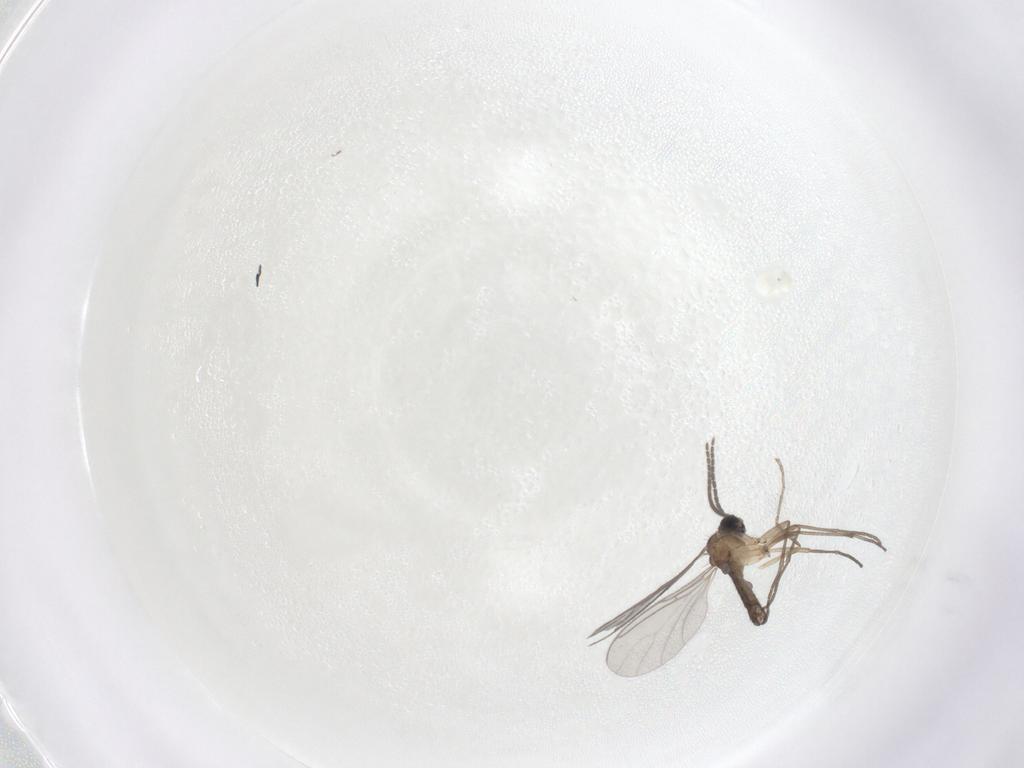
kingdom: Animalia
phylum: Arthropoda
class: Insecta
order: Diptera
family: Sciaridae
